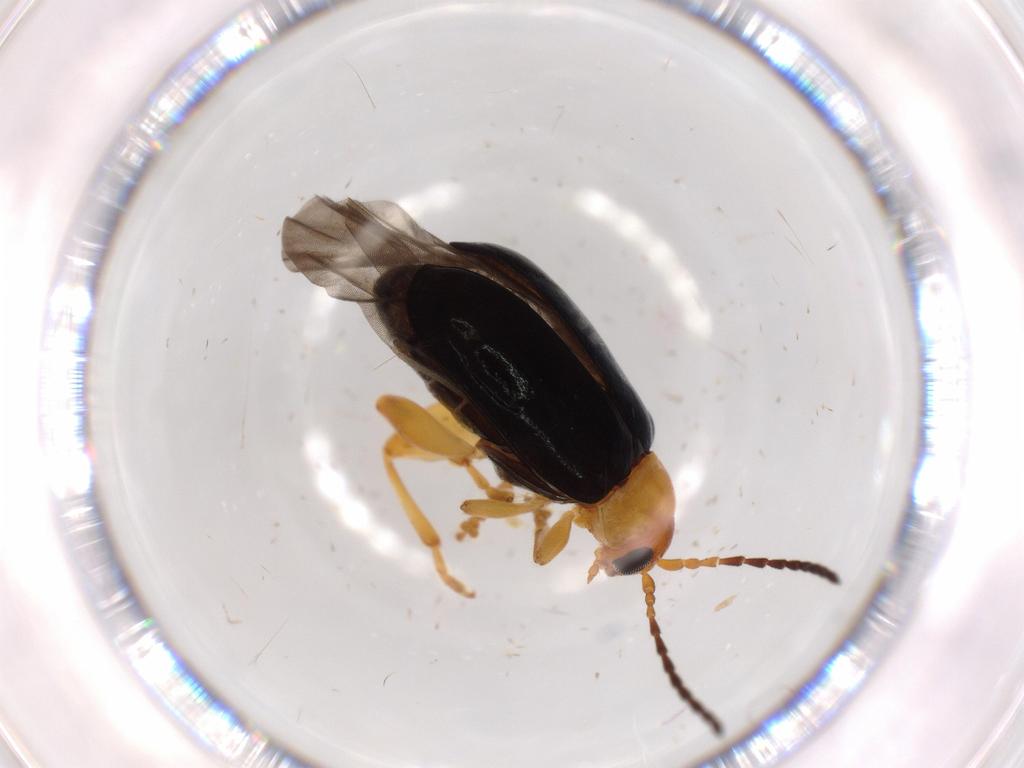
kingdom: Animalia
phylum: Arthropoda
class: Insecta
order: Coleoptera
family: Chrysomelidae
